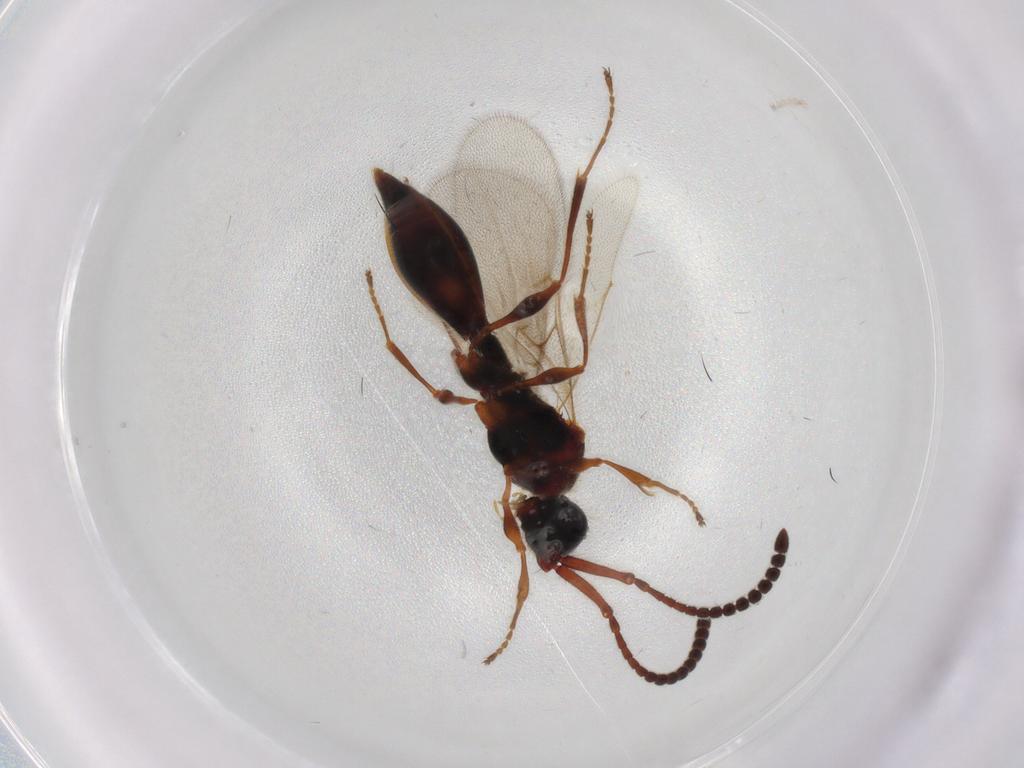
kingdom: Animalia
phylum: Arthropoda
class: Insecta
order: Hymenoptera
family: Diapriidae
